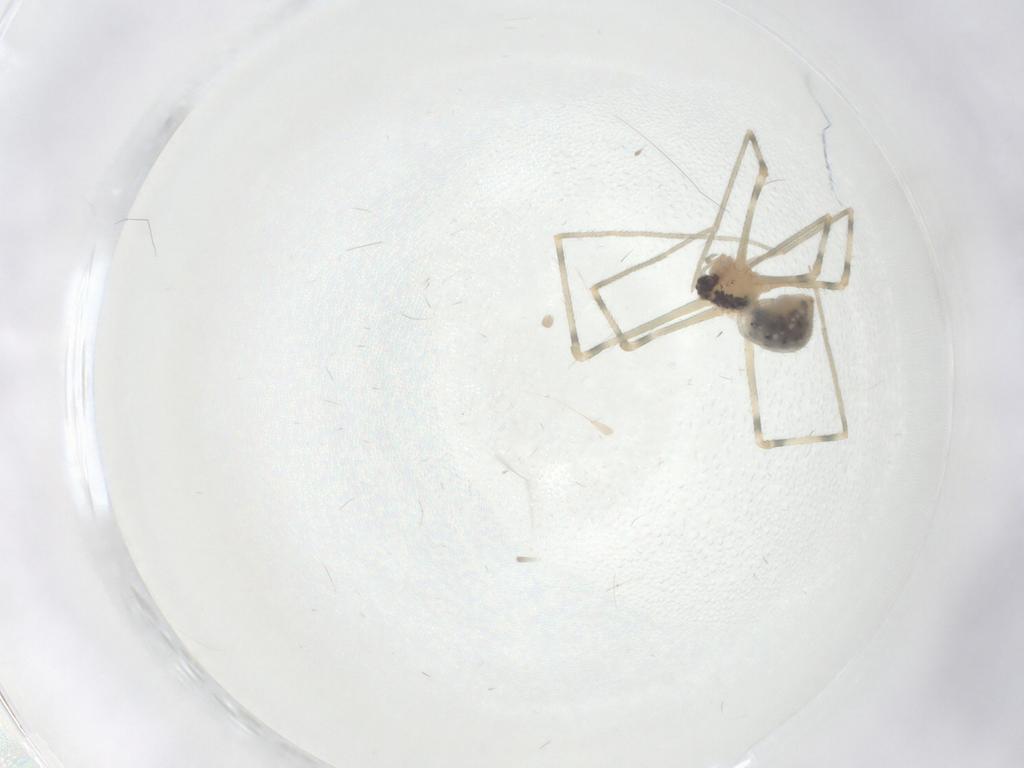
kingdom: Animalia
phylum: Arthropoda
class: Arachnida
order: Araneae
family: Pholcidae
